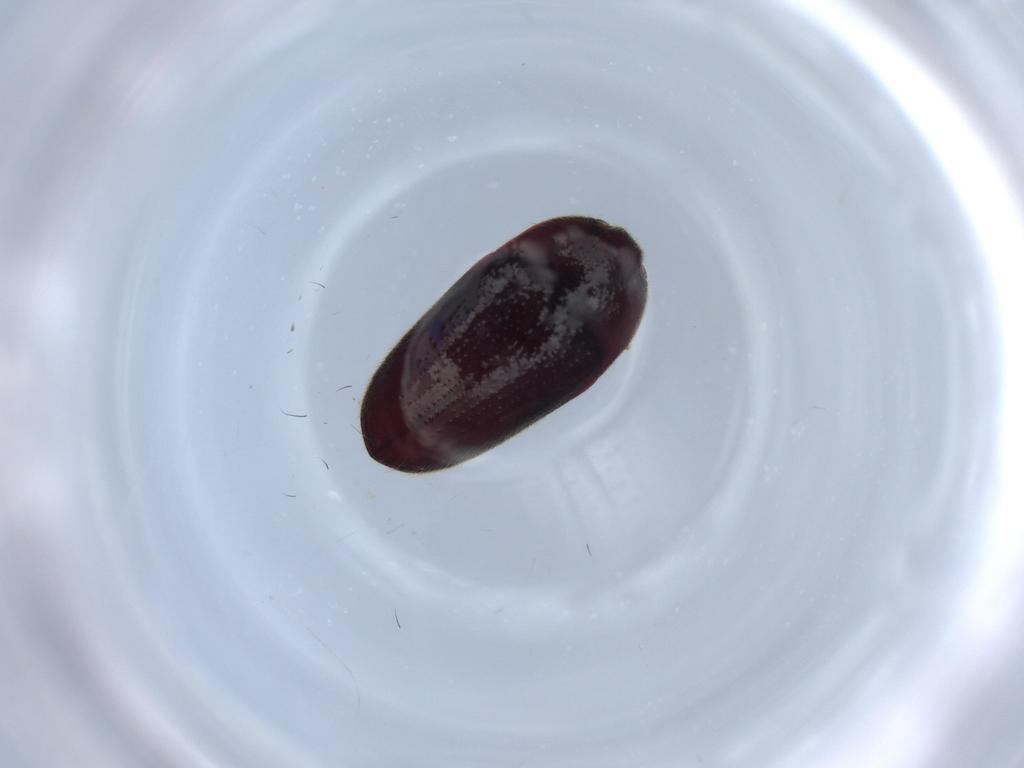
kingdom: Animalia
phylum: Arthropoda
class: Insecta
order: Coleoptera
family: Throscidae
